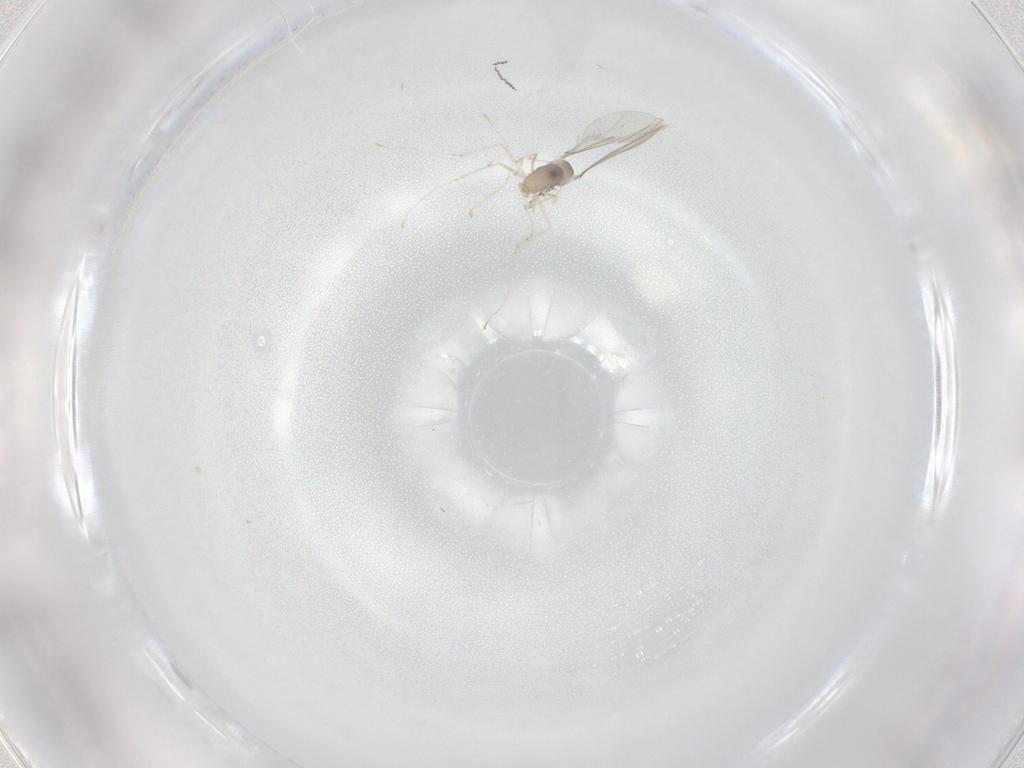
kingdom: Animalia
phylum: Arthropoda
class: Insecta
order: Diptera
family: Cecidomyiidae
